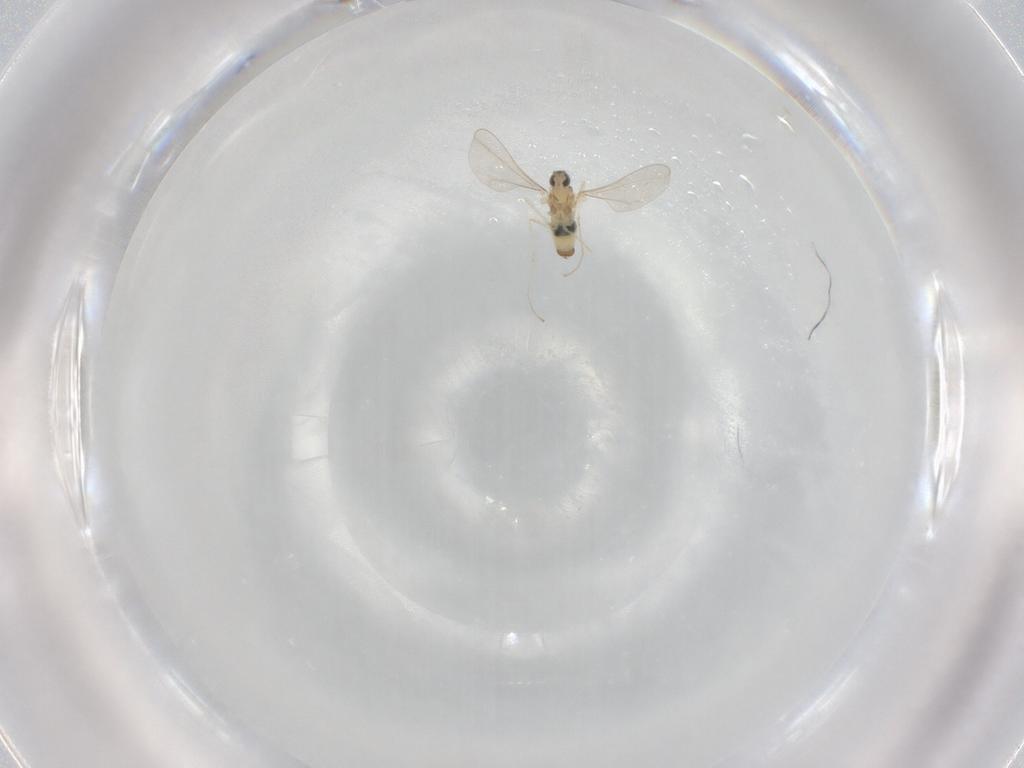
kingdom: Animalia
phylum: Arthropoda
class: Insecta
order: Diptera
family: Cecidomyiidae
